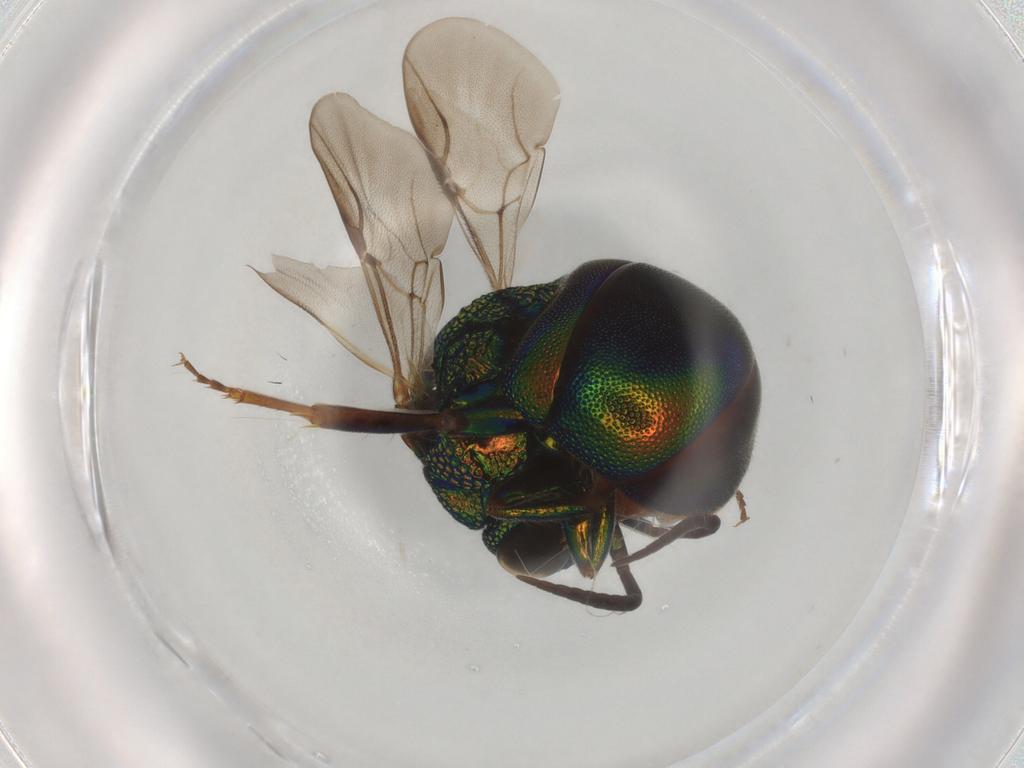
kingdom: Animalia
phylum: Arthropoda
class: Insecta
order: Hymenoptera
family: Chrysididae
